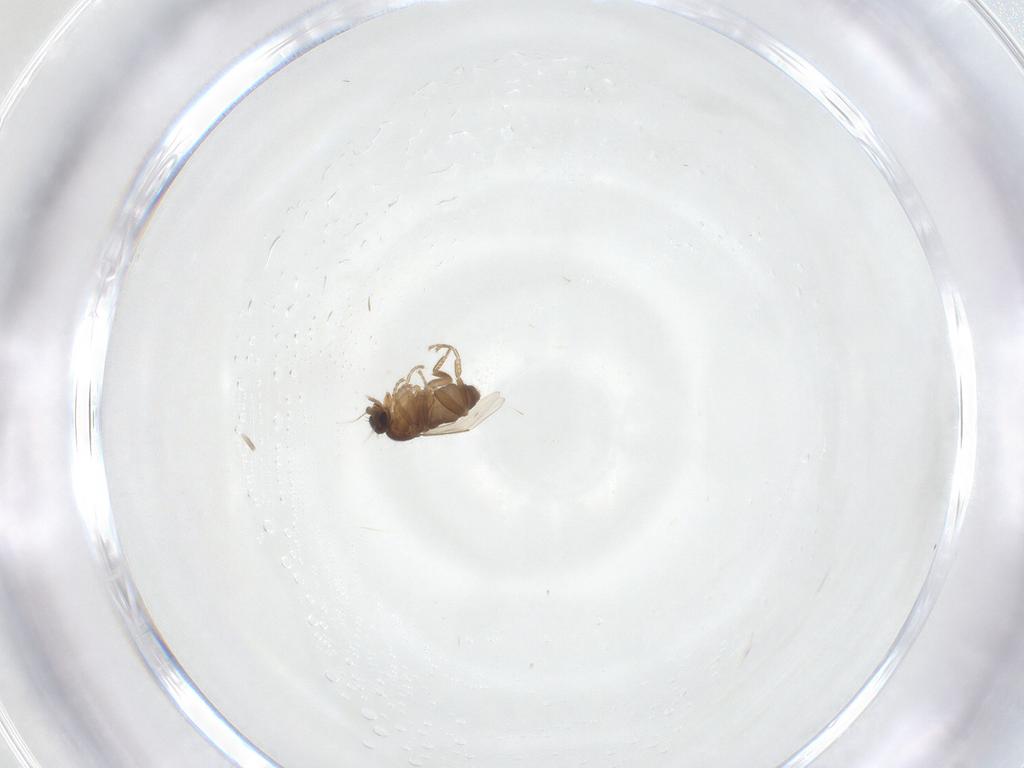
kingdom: Animalia
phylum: Arthropoda
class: Insecta
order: Diptera
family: Phoridae
